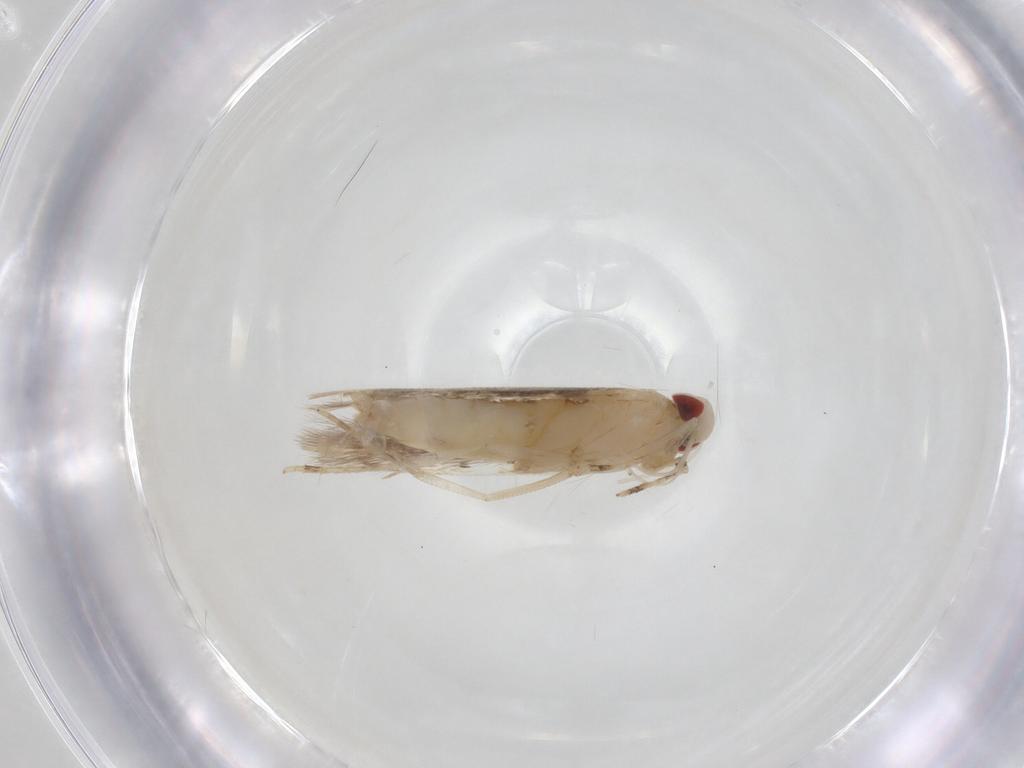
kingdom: Animalia
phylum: Arthropoda
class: Insecta
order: Lepidoptera
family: Cosmopterigidae
